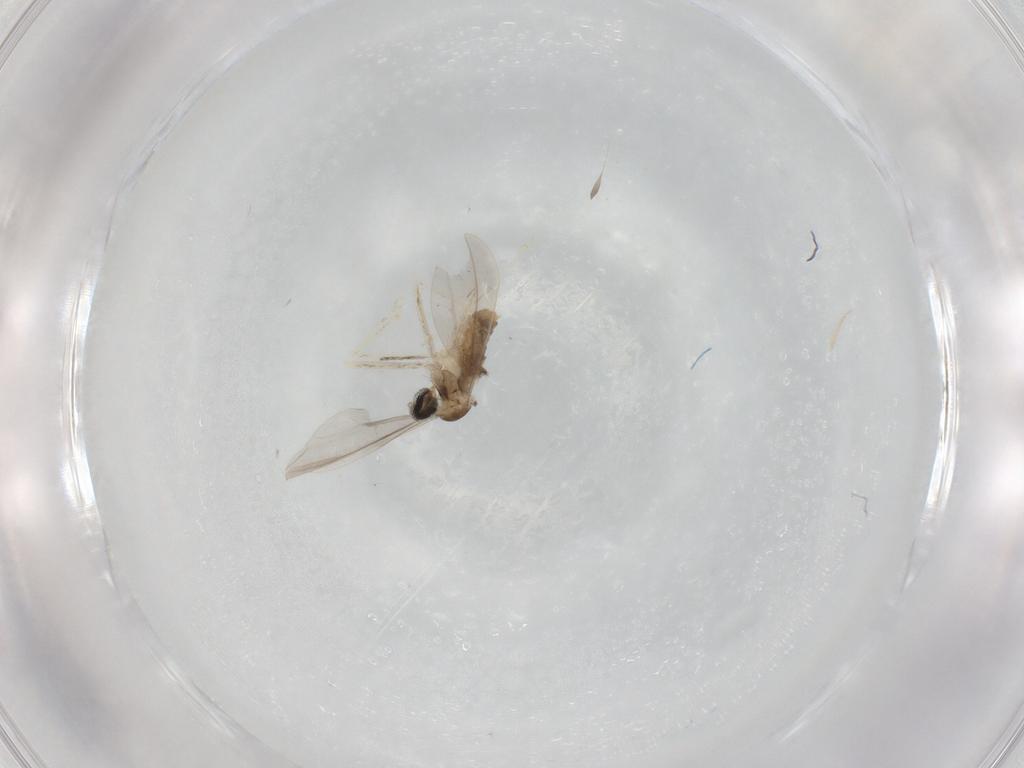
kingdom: Animalia
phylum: Arthropoda
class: Insecta
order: Diptera
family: Cecidomyiidae
